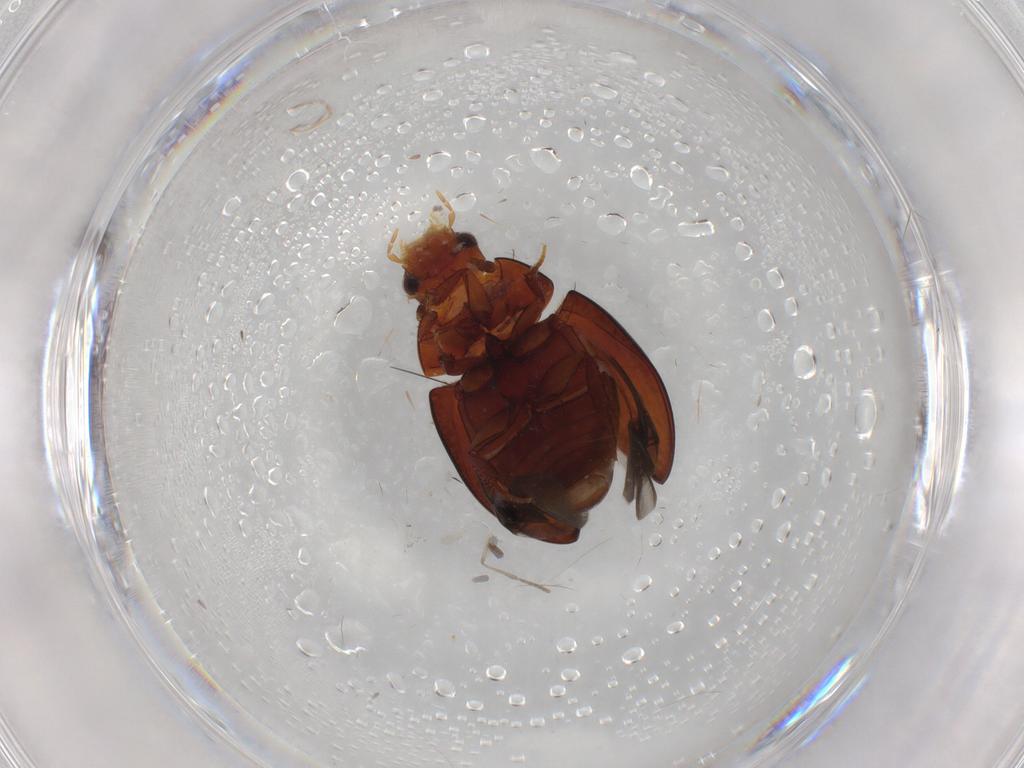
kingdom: Animalia
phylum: Arthropoda
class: Insecta
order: Coleoptera
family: Hydrophilidae
